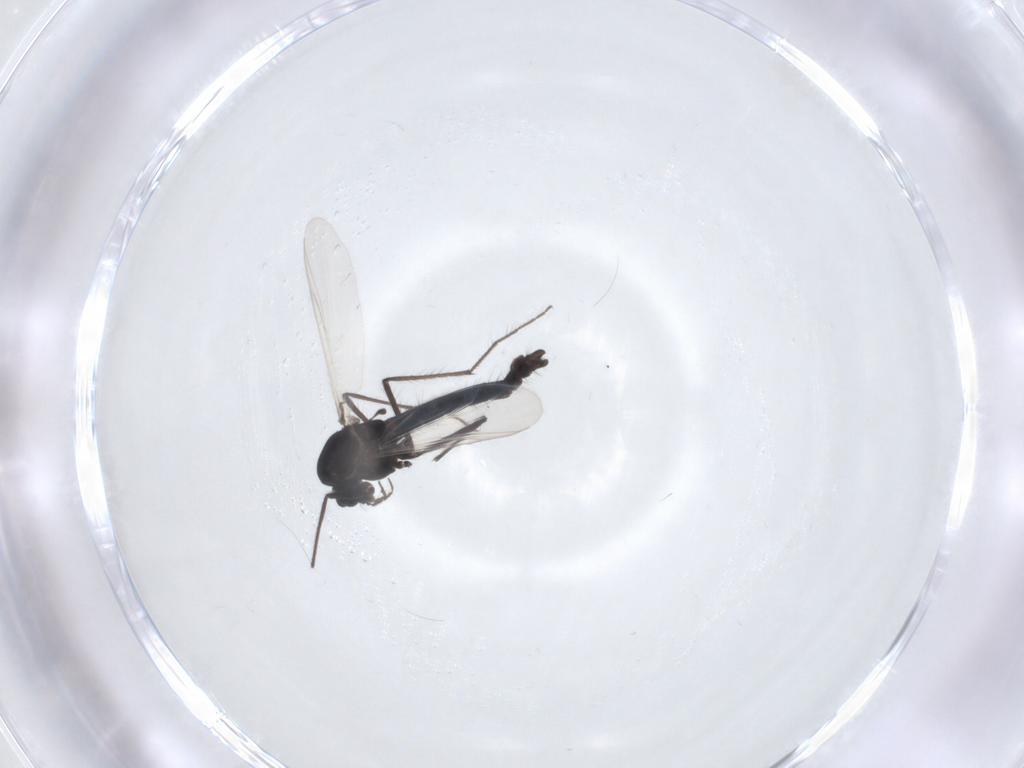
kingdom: Animalia
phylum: Arthropoda
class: Insecta
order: Diptera
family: Chironomidae
